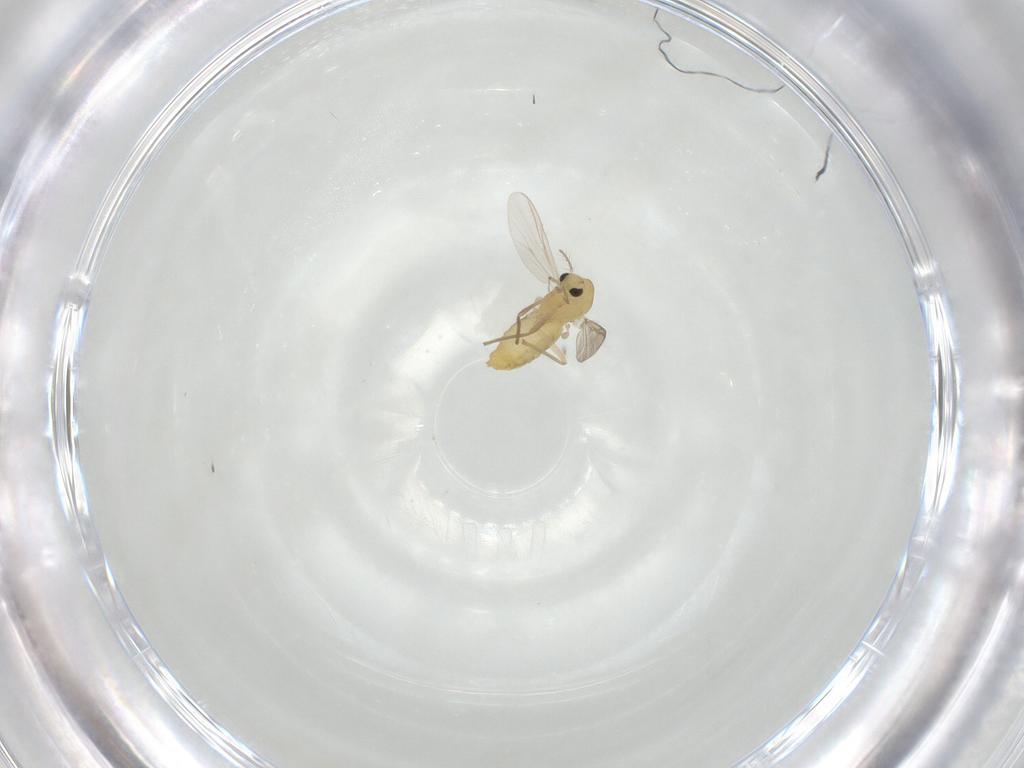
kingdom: Animalia
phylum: Arthropoda
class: Insecta
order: Diptera
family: Chironomidae
